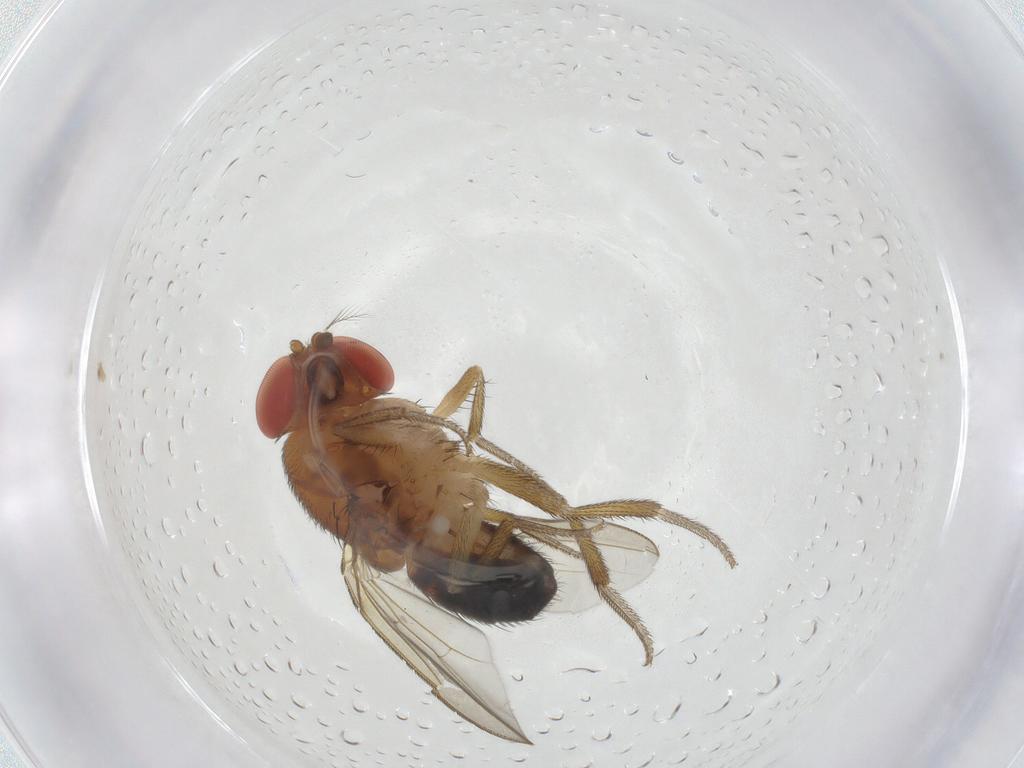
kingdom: Animalia
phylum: Arthropoda
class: Insecta
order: Diptera
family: Drosophilidae
